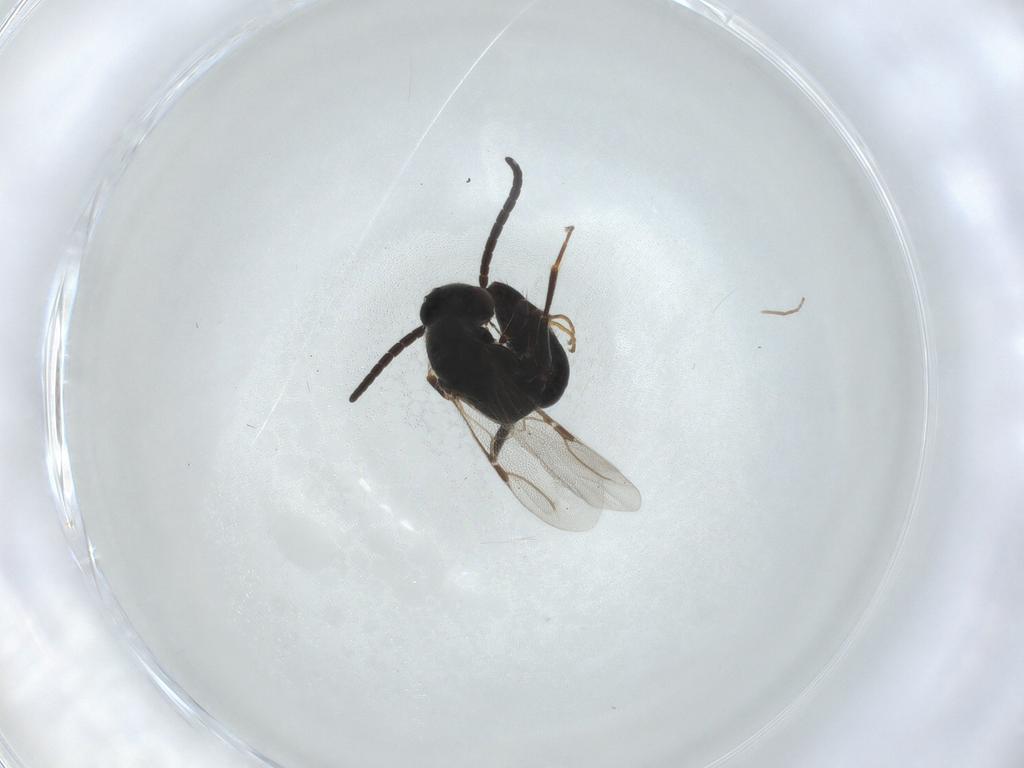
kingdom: Animalia
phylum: Arthropoda
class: Insecta
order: Hymenoptera
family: Bethylidae
